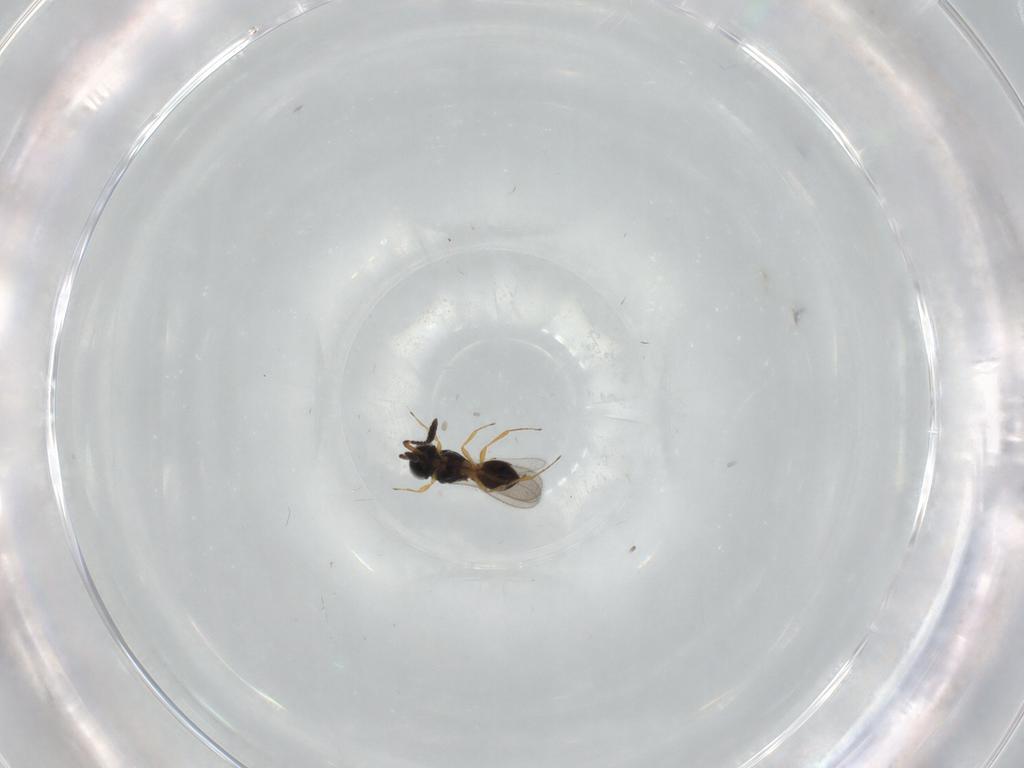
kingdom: Animalia
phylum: Arthropoda
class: Insecta
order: Hymenoptera
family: Scelionidae
